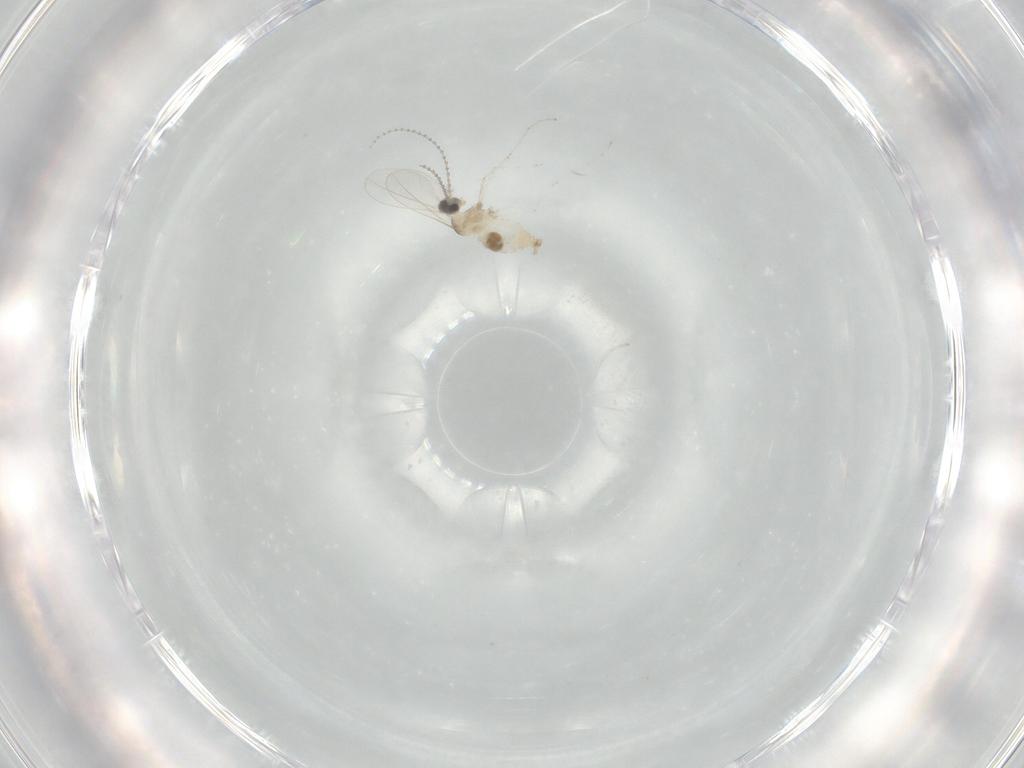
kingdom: Animalia
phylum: Arthropoda
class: Insecta
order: Diptera
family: Cecidomyiidae
